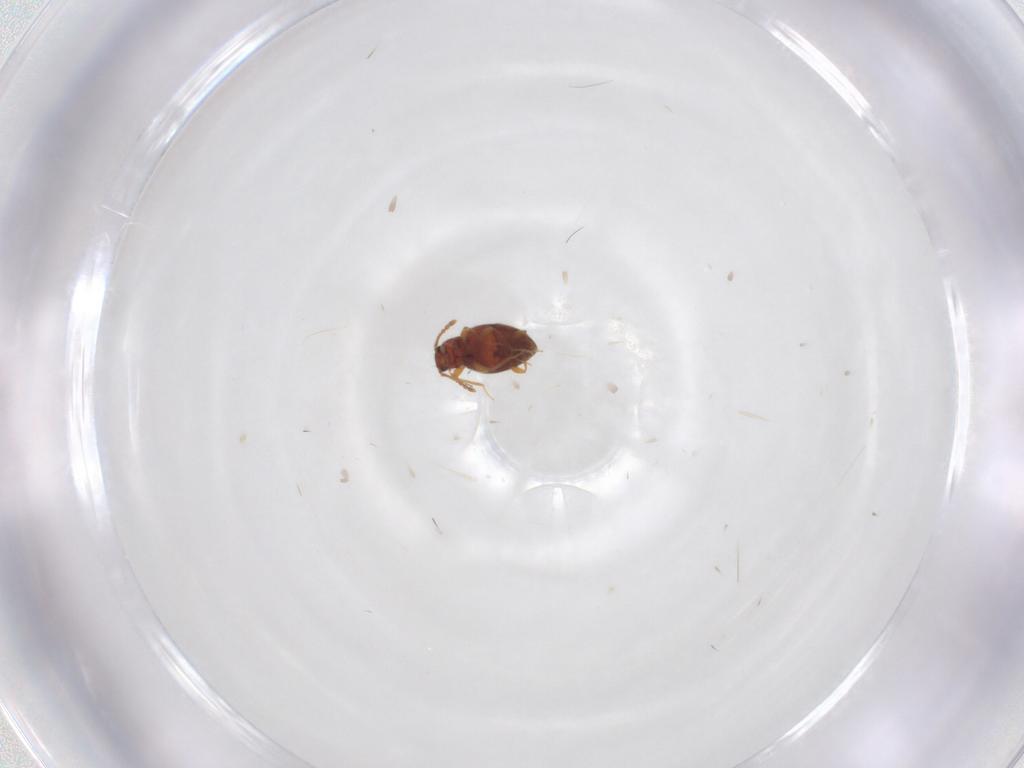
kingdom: Animalia
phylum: Arthropoda
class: Insecta
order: Coleoptera
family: Staphylinidae
